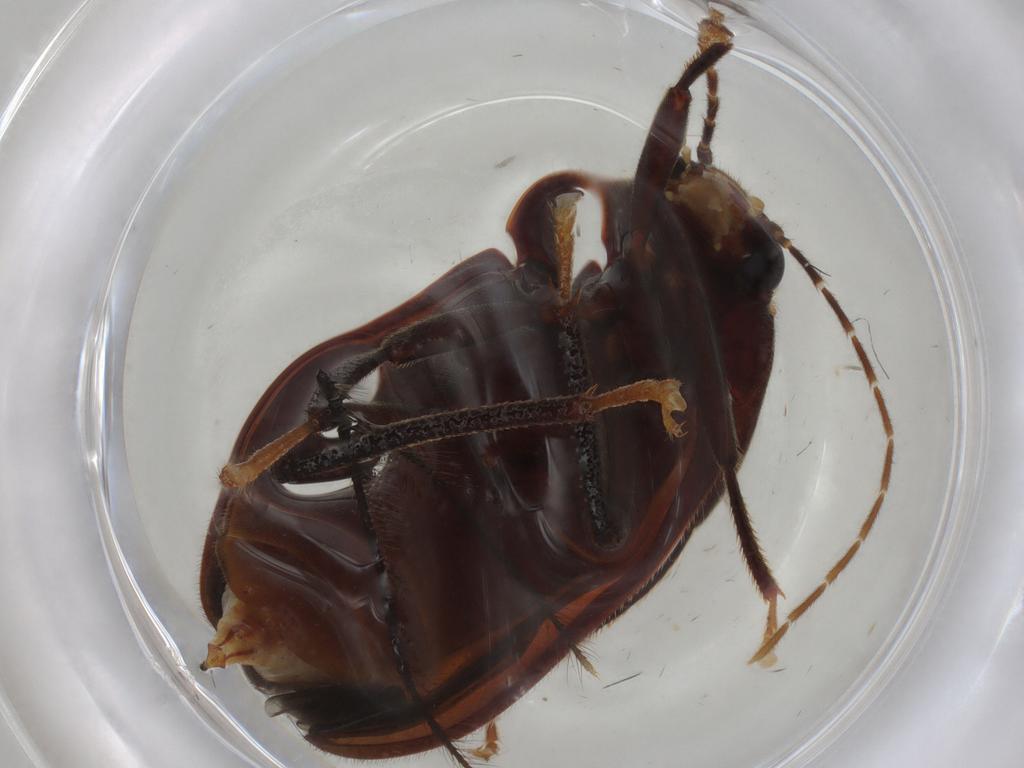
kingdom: Animalia
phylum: Arthropoda
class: Insecta
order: Coleoptera
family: Ptilodactylidae
